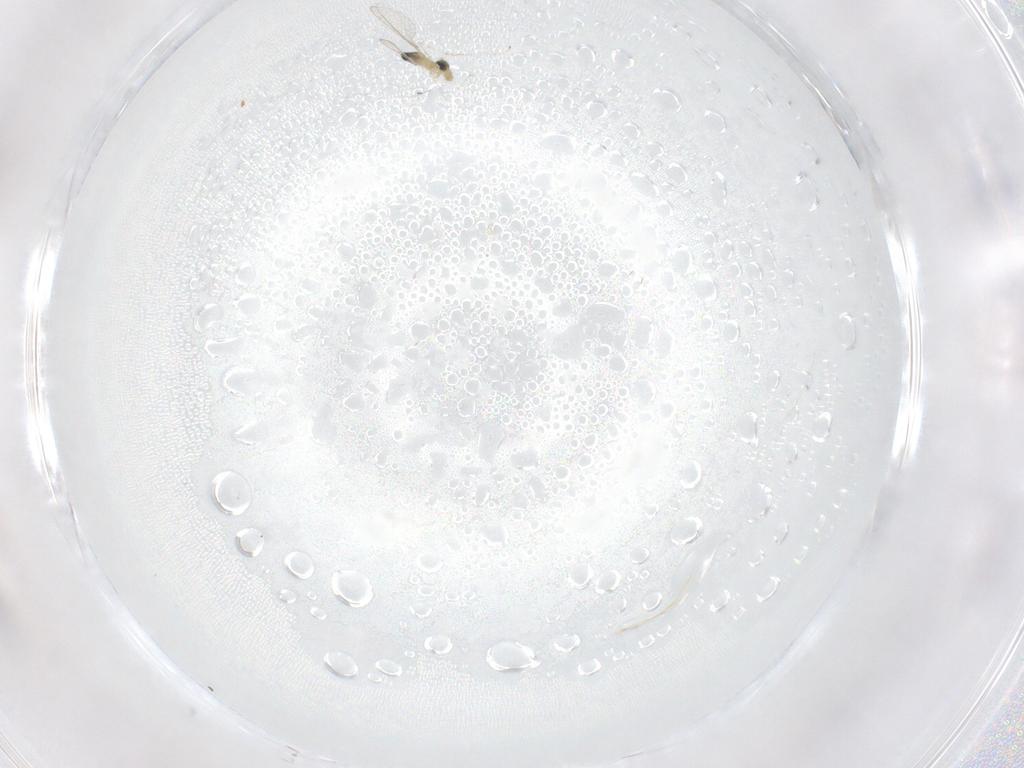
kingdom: Animalia
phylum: Arthropoda
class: Insecta
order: Diptera
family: Cecidomyiidae
